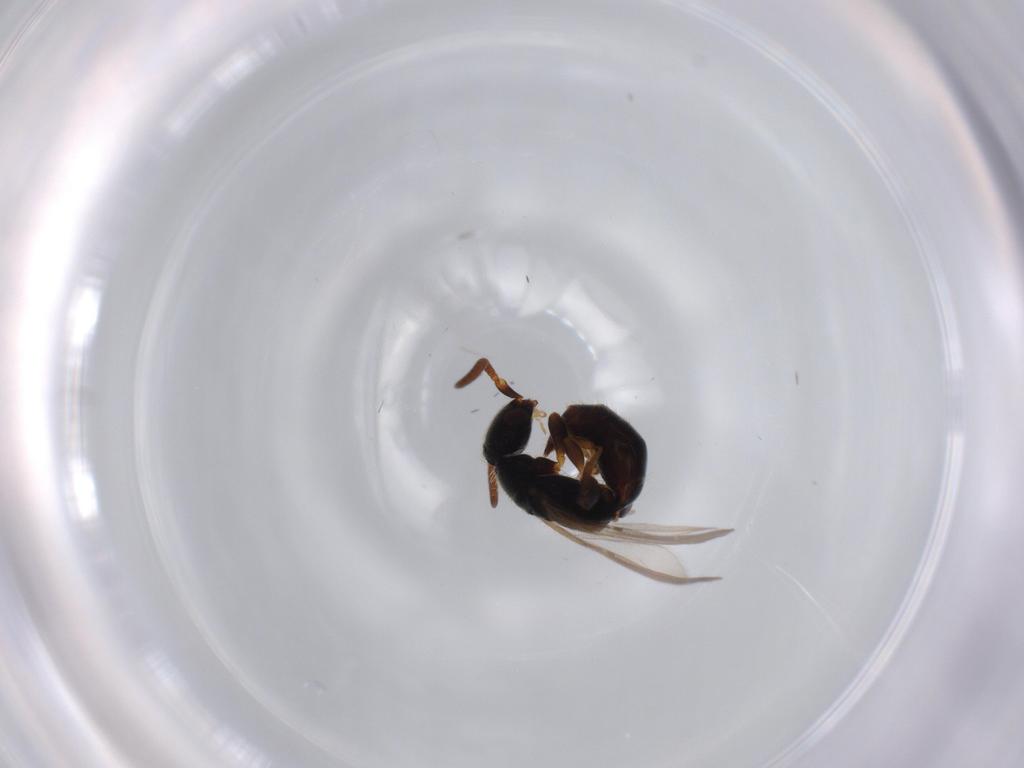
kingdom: Animalia
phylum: Arthropoda
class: Insecta
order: Hymenoptera
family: Bethylidae
